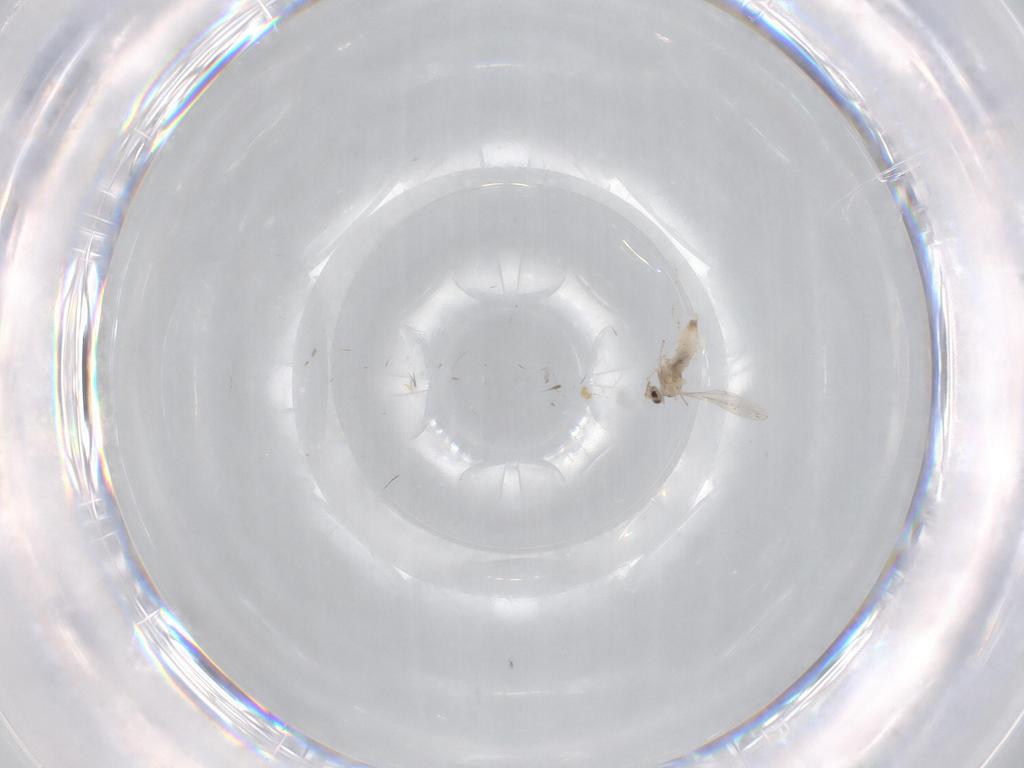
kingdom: Animalia
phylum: Arthropoda
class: Insecta
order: Diptera
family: Cecidomyiidae
